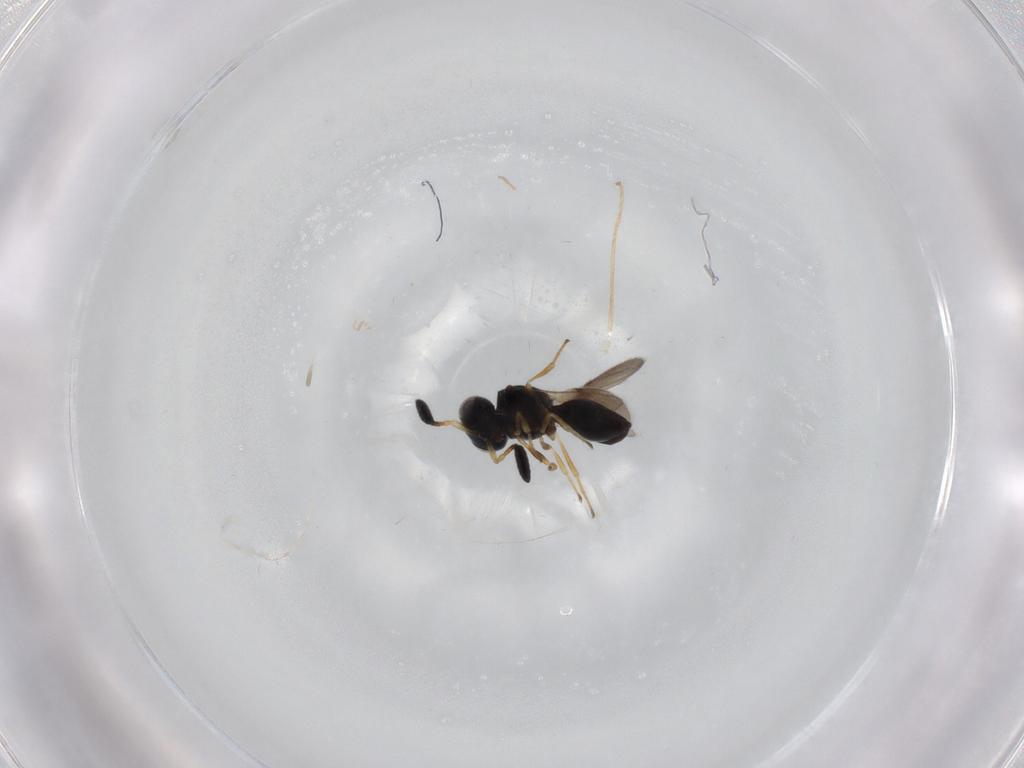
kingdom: Animalia
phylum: Arthropoda
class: Insecta
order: Hymenoptera
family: Scelionidae
